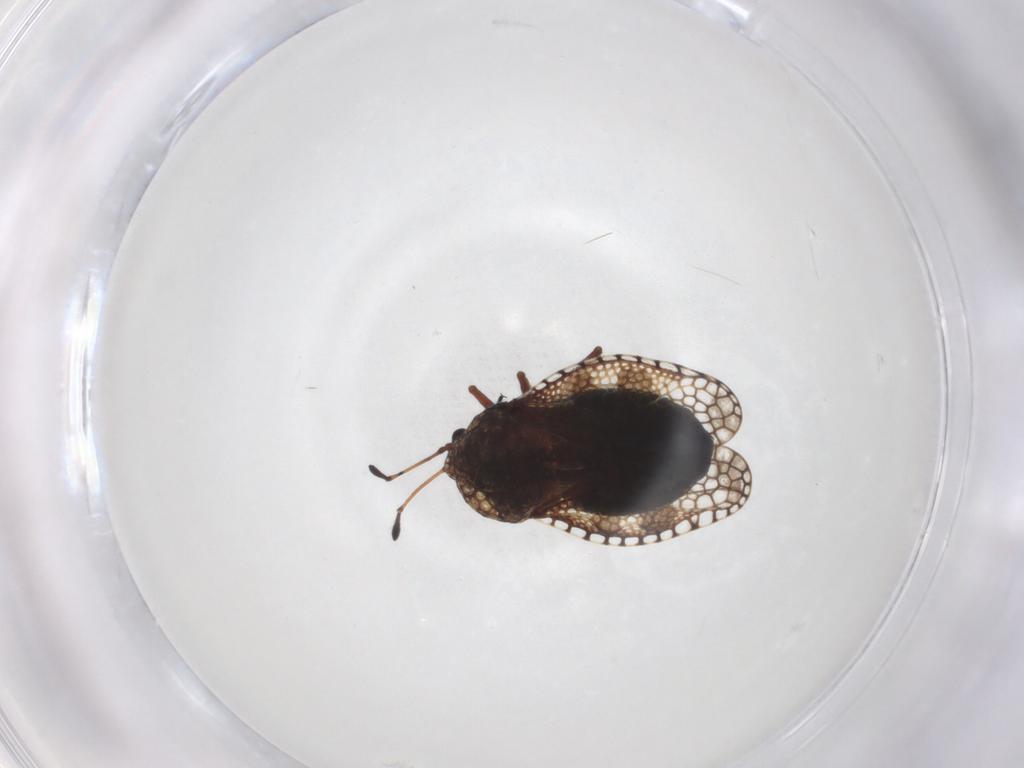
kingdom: Animalia
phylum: Arthropoda
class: Insecta
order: Hemiptera
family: Tingidae
